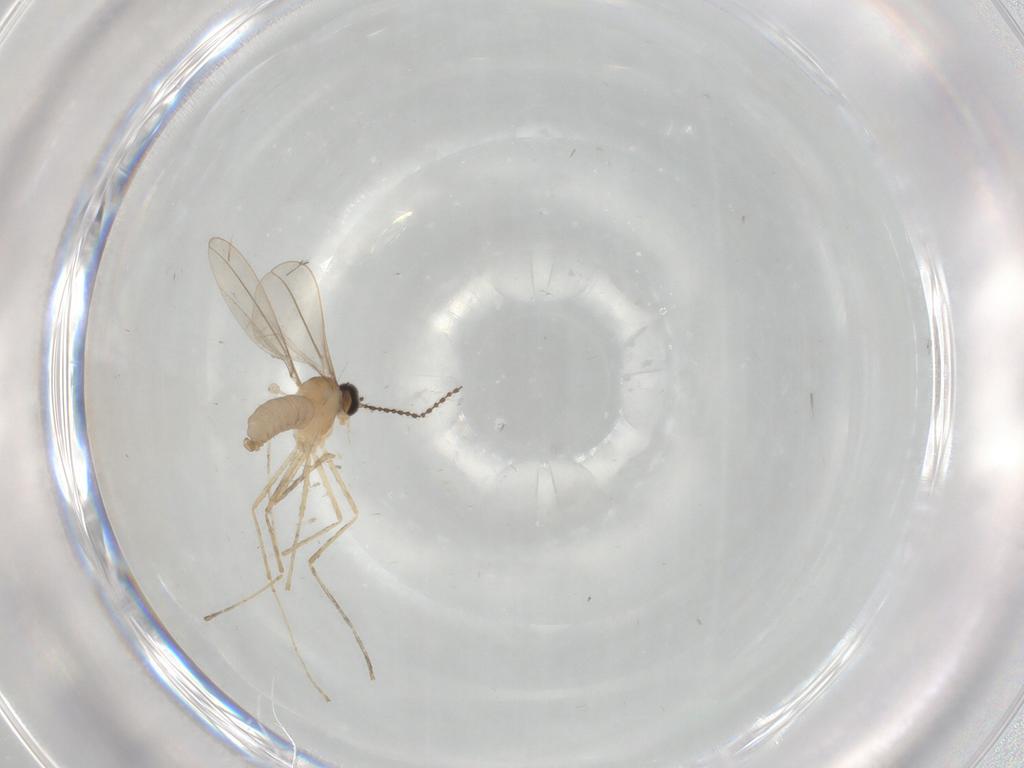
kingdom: Animalia
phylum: Arthropoda
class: Insecta
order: Diptera
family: Cecidomyiidae
